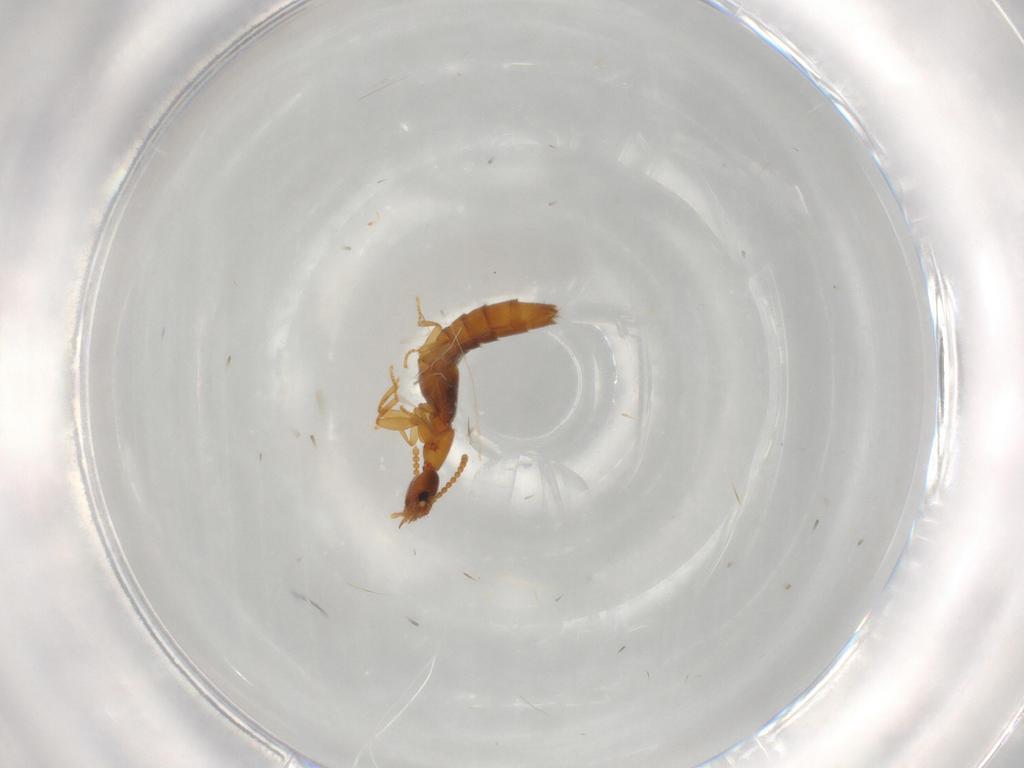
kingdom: Animalia
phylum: Arthropoda
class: Insecta
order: Coleoptera
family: Staphylinidae
